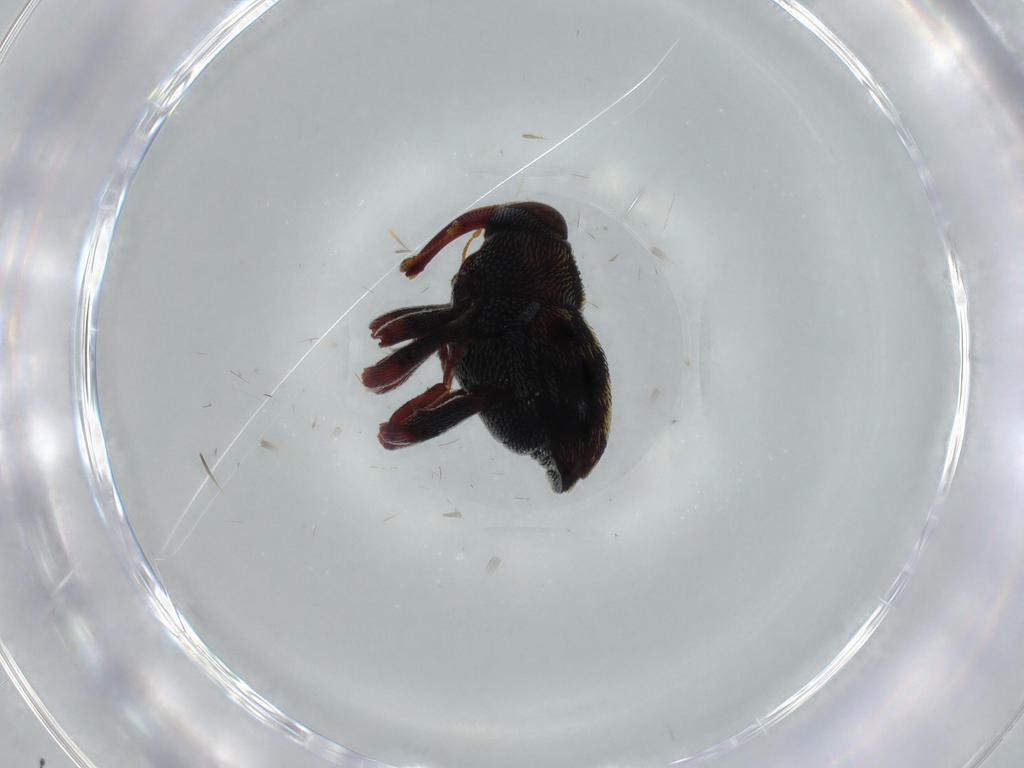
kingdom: Animalia
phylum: Arthropoda
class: Insecta
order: Coleoptera
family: Curculionidae
